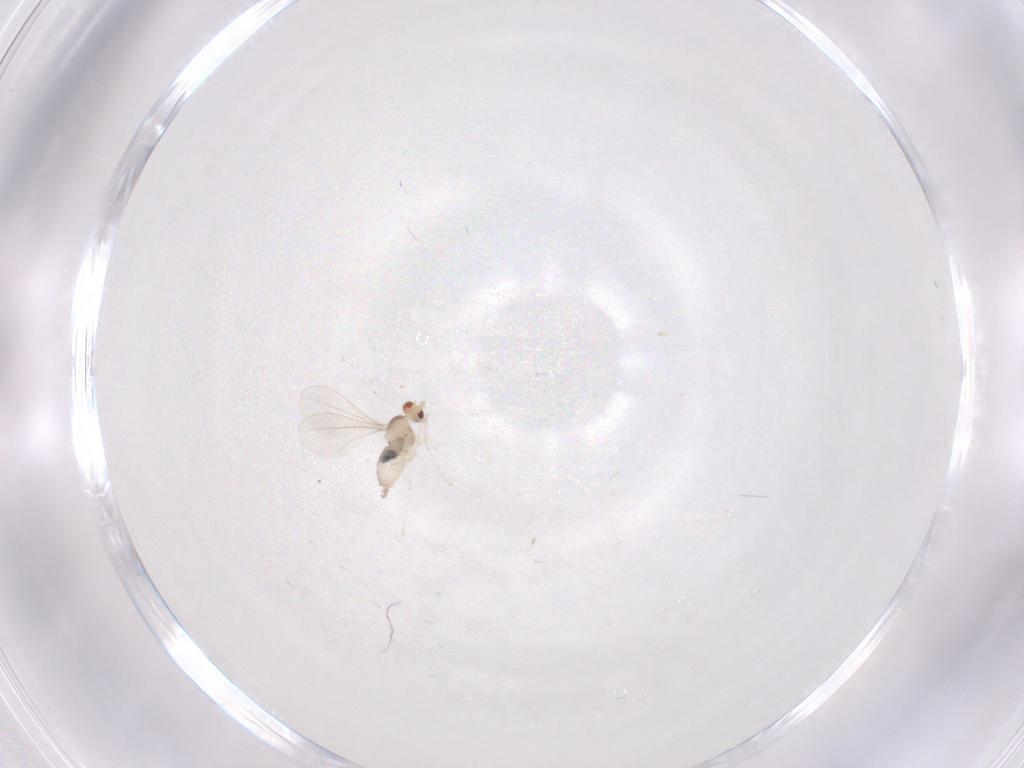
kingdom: Animalia
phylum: Arthropoda
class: Insecta
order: Diptera
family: Cecidomyiidae
